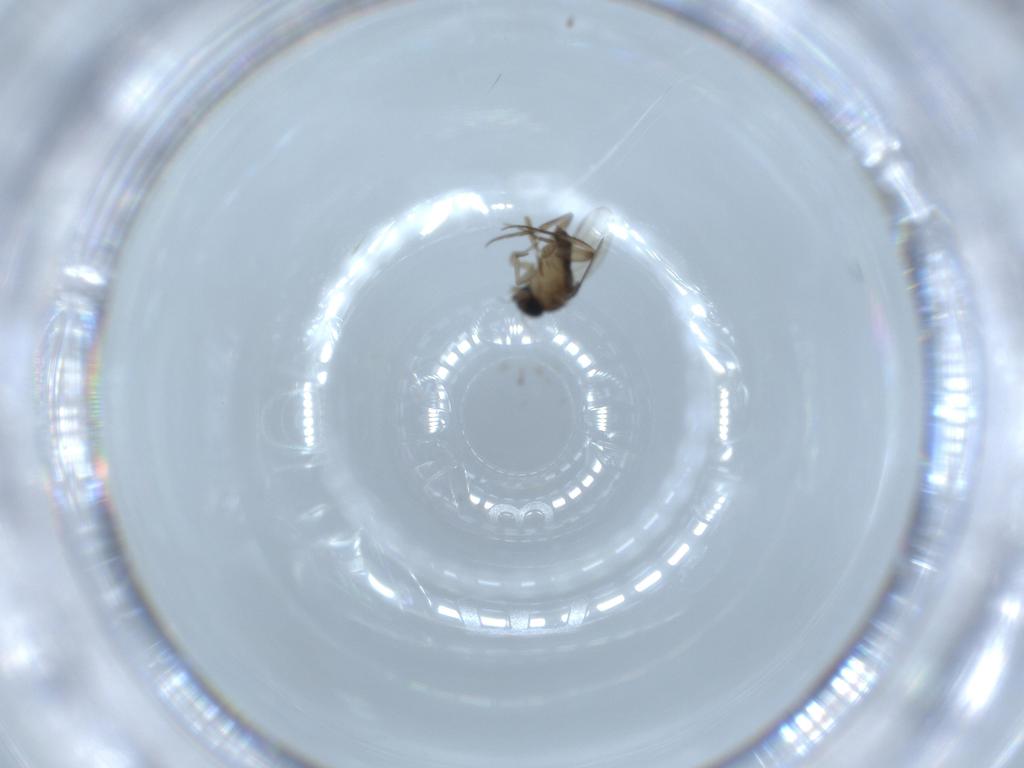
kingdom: Animalia
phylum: Arthropoda
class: Insecta
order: Diptera
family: Phoridae
